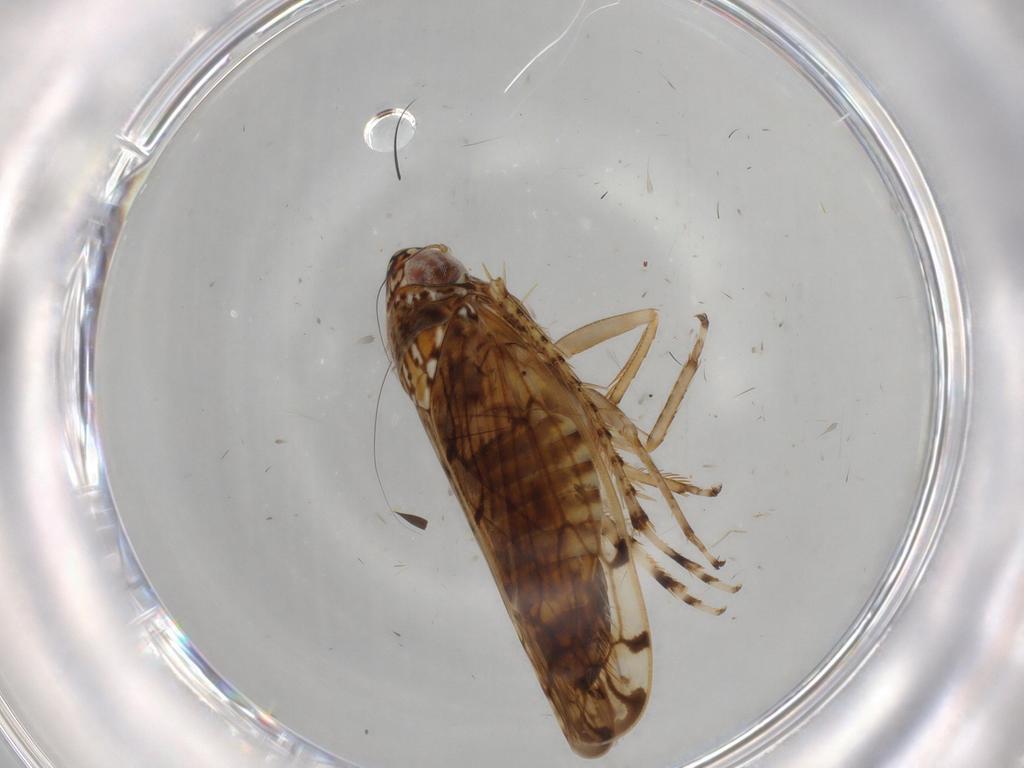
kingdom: Animalia
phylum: Arthropoda
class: Insecta
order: Hemiptera
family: Cicadellidae
